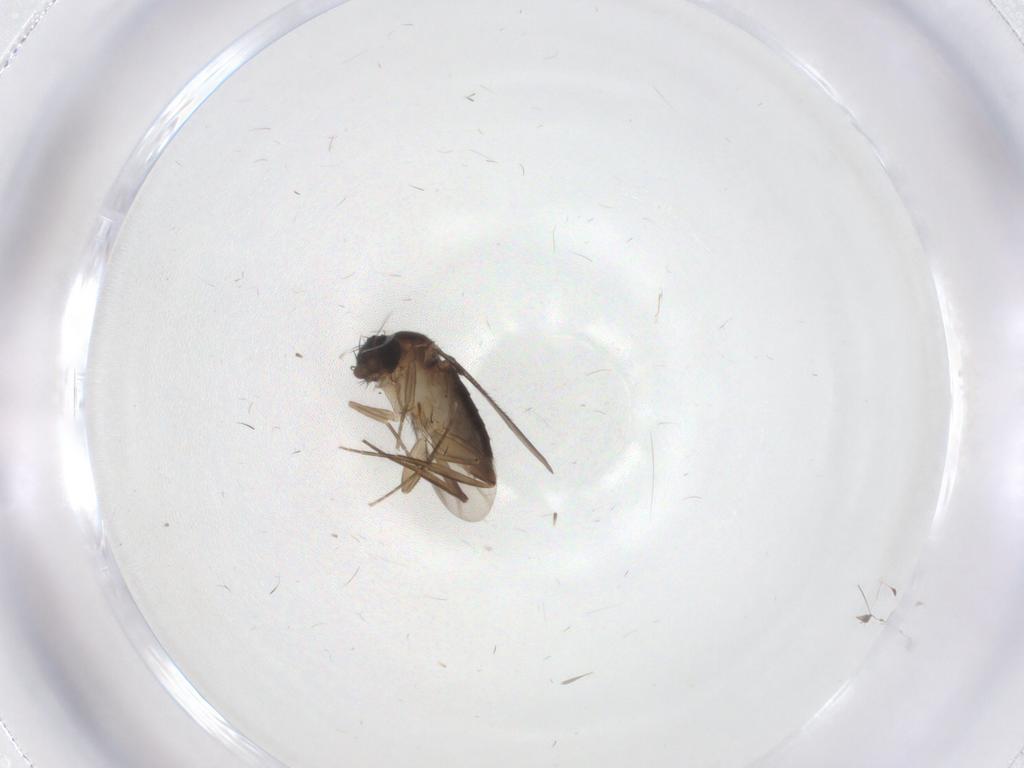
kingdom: Animalia
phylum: Arthropoda
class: Insecta
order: Diptera
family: Phoridae
